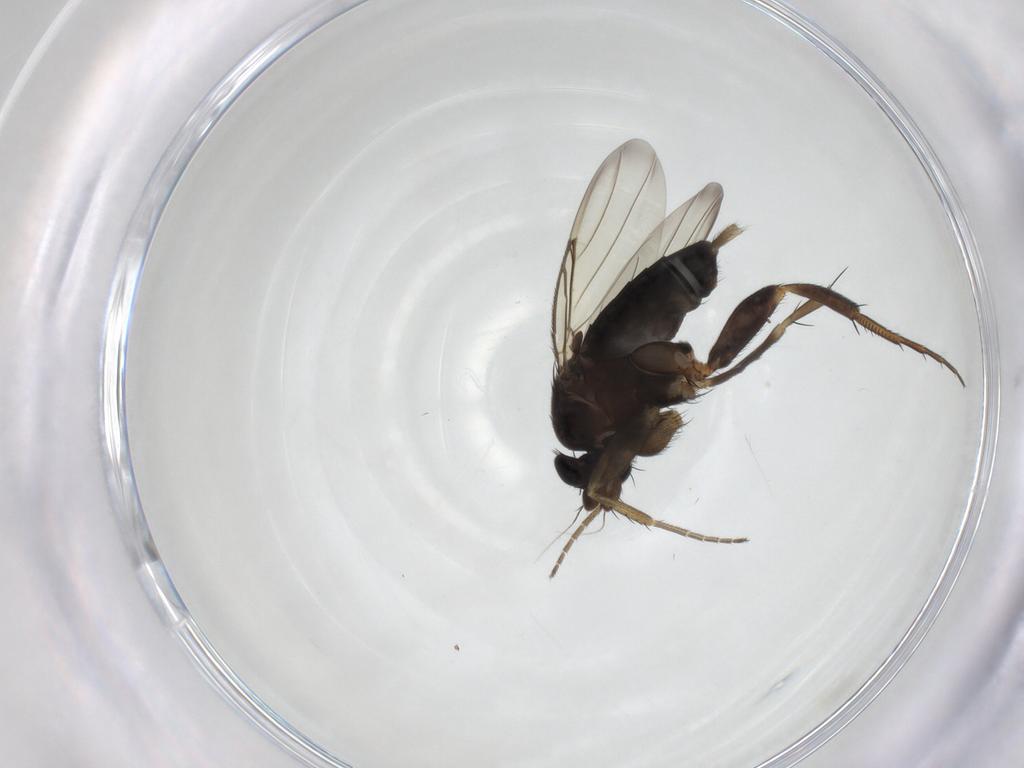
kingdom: Animalia
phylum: Arthropoda
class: Insecta
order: Diptera
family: Phoridae
